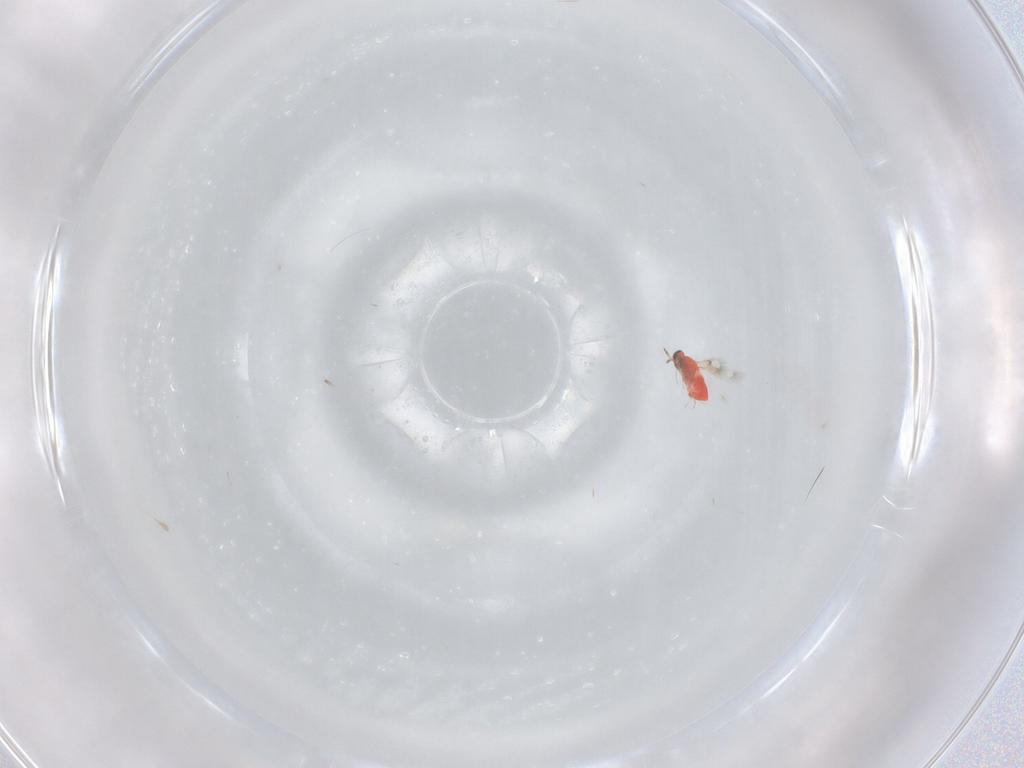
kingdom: Animalia
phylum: Arthropoda
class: Insecta
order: Hymenoptera
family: Trichogrammatidae
